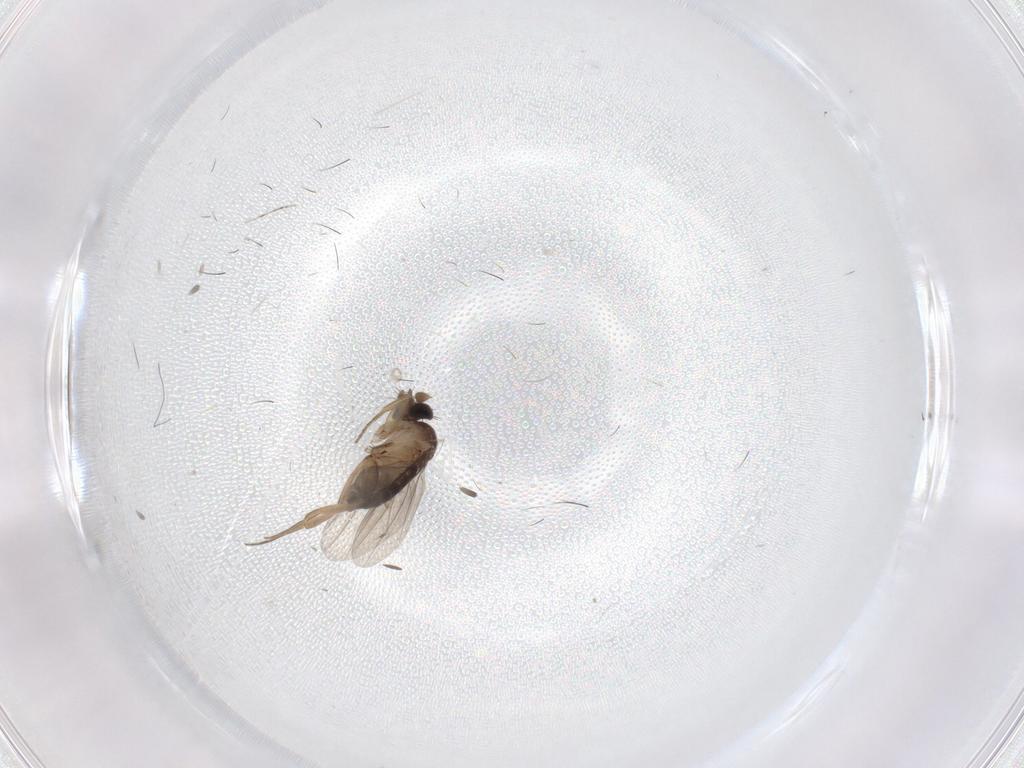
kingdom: Animalia
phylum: Arthropoda
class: Insecta
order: Diptera
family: Phoridae
